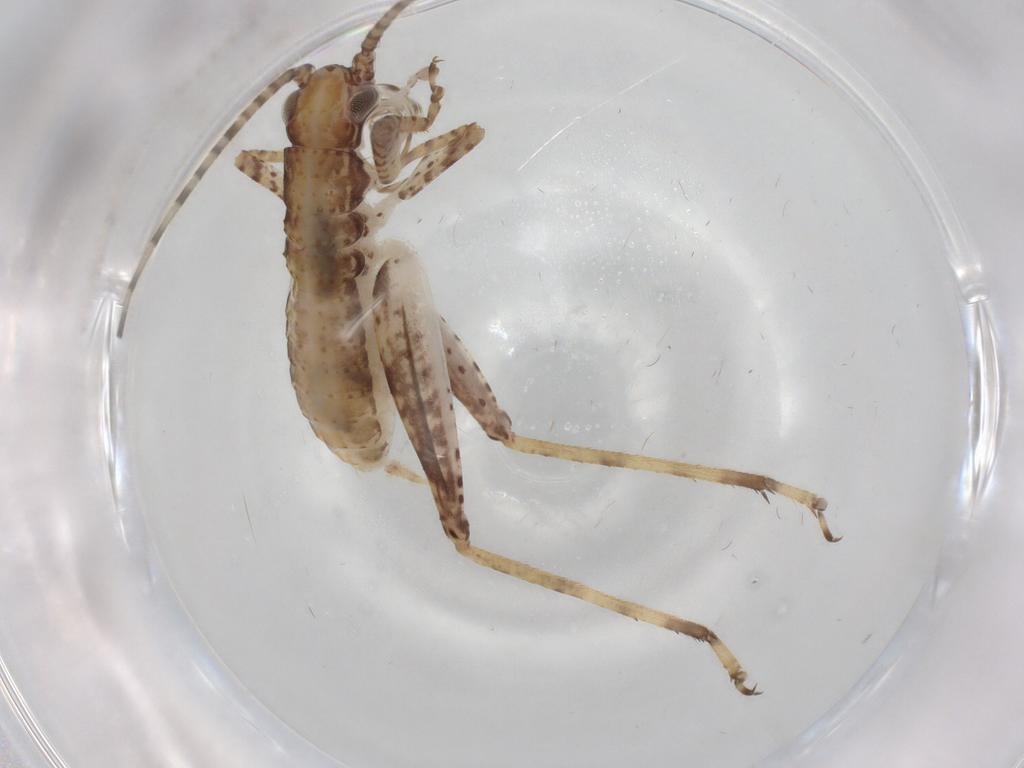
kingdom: Animalia
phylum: Arthropoda
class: Insecta
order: Orthoptera
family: Gryllidae
